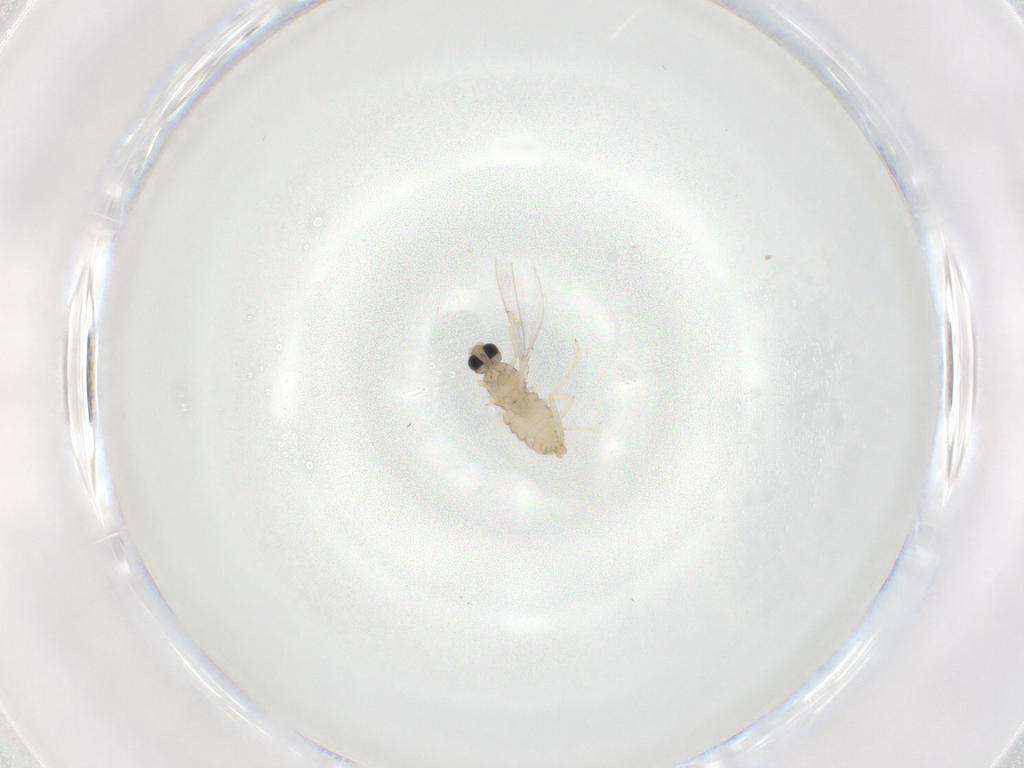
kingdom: Animalia
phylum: Arthropoda
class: Insecta
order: Diptera
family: Cecidomyiidae
